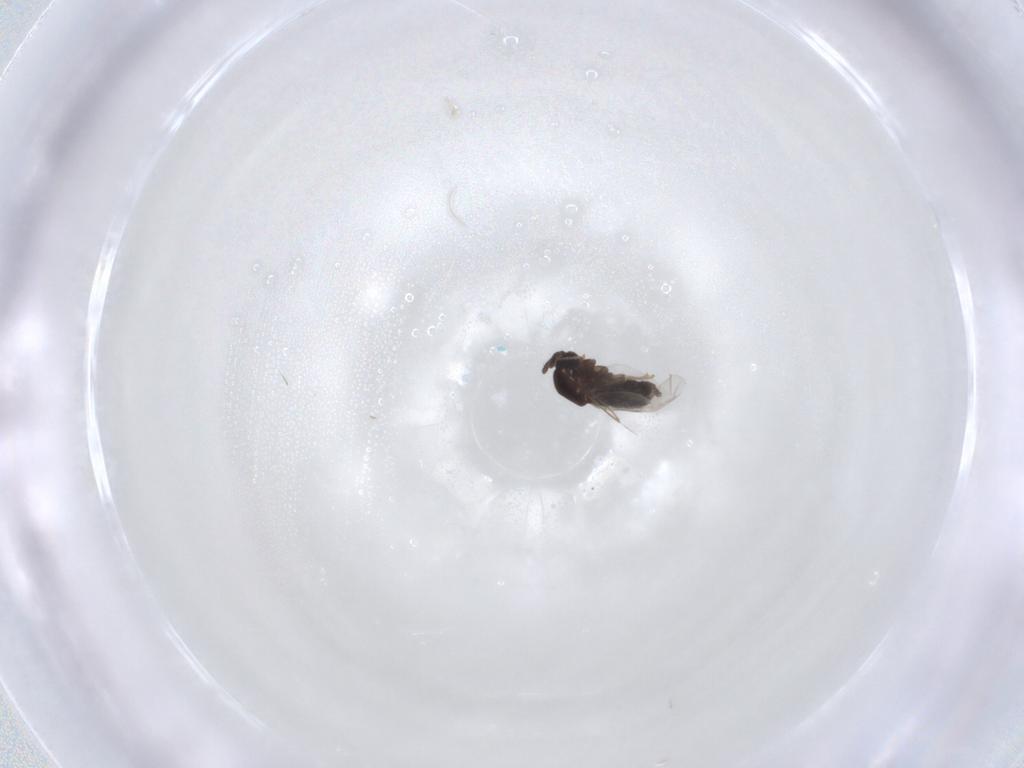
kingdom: Animalia
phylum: Arthropoda
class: Insecta
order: Diptera
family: Scatopsidae
